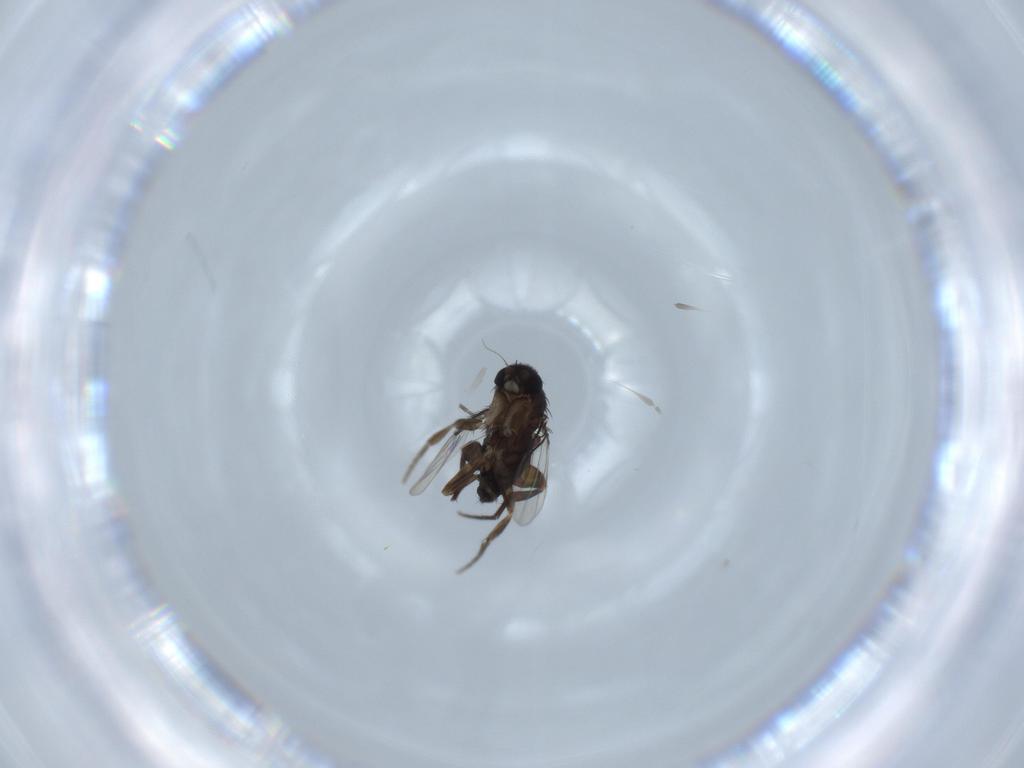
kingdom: Animalia
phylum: Arthropoda
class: Insecta
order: Diptera
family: Phoridae
